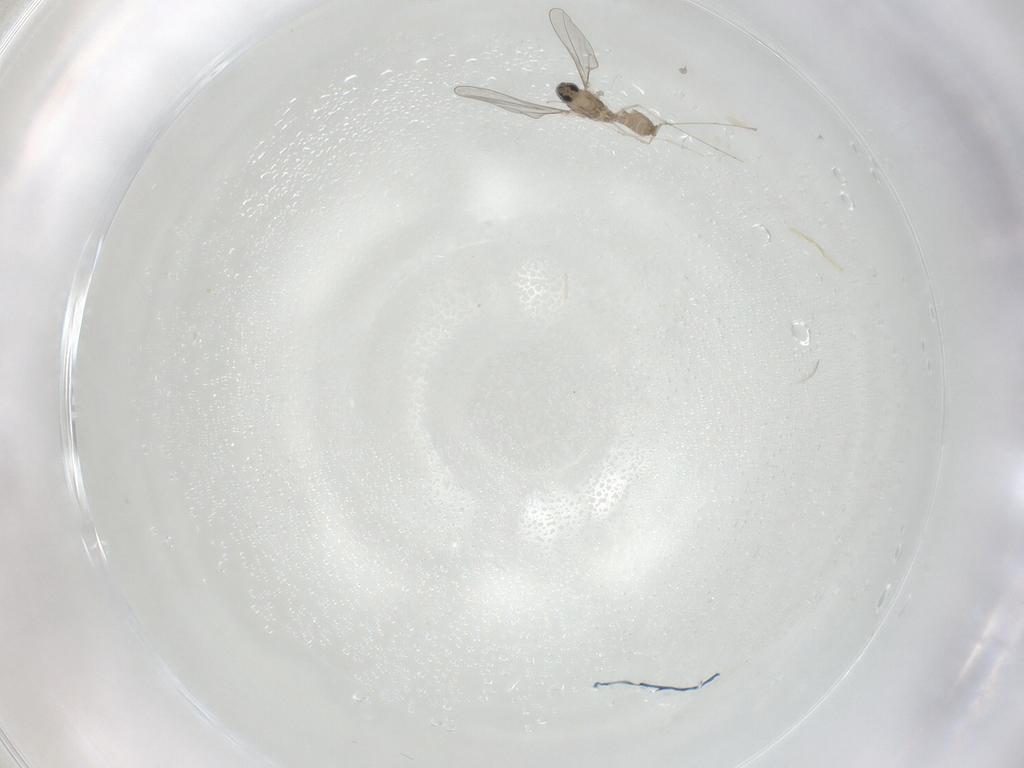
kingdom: Animalia
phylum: Arthropoda
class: Insecta
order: Diptera
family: Cecidomyiidae
